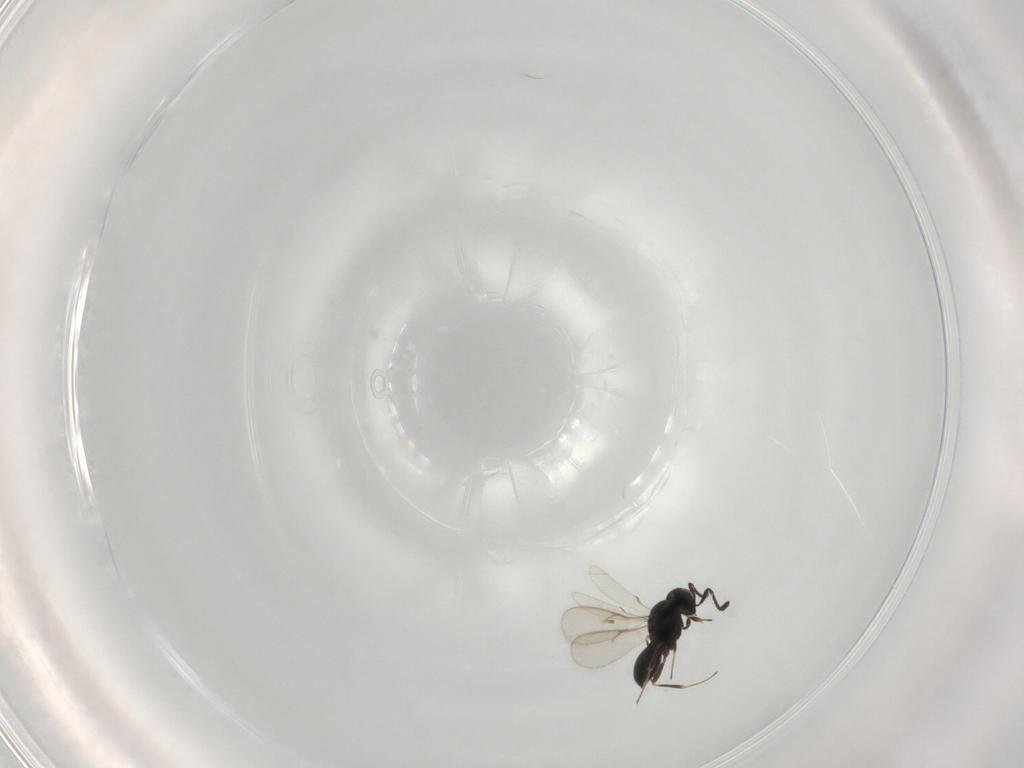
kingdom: Animalia
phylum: Arthropoda
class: Insecta
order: Hymenoptera
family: Scelionidae
